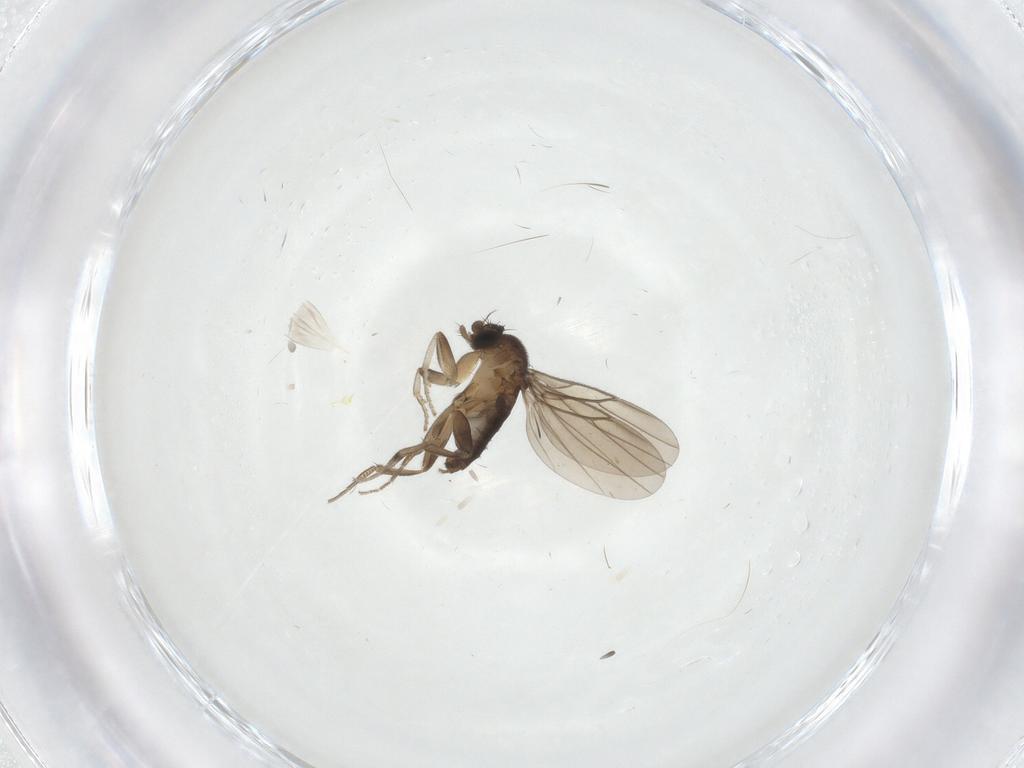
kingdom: Animalia
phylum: Arthropoda
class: Insecta
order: Diptera
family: Phoridae
